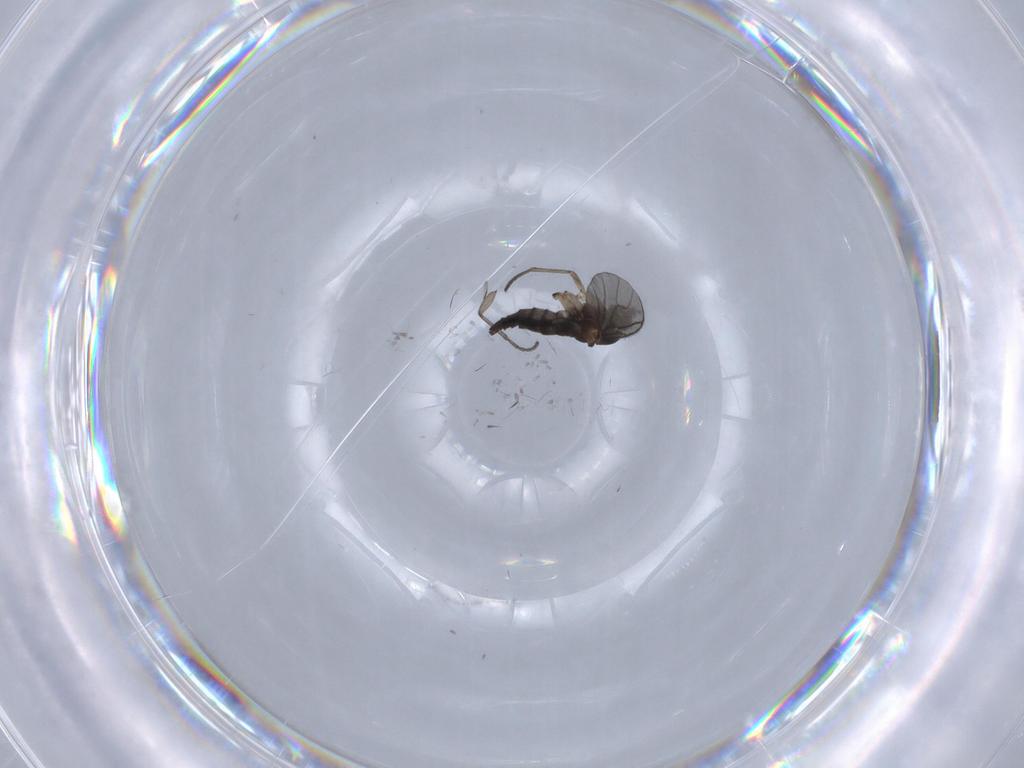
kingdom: Animalia
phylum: Arthropoda
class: Insecta
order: Diptera
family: Sciaridae
